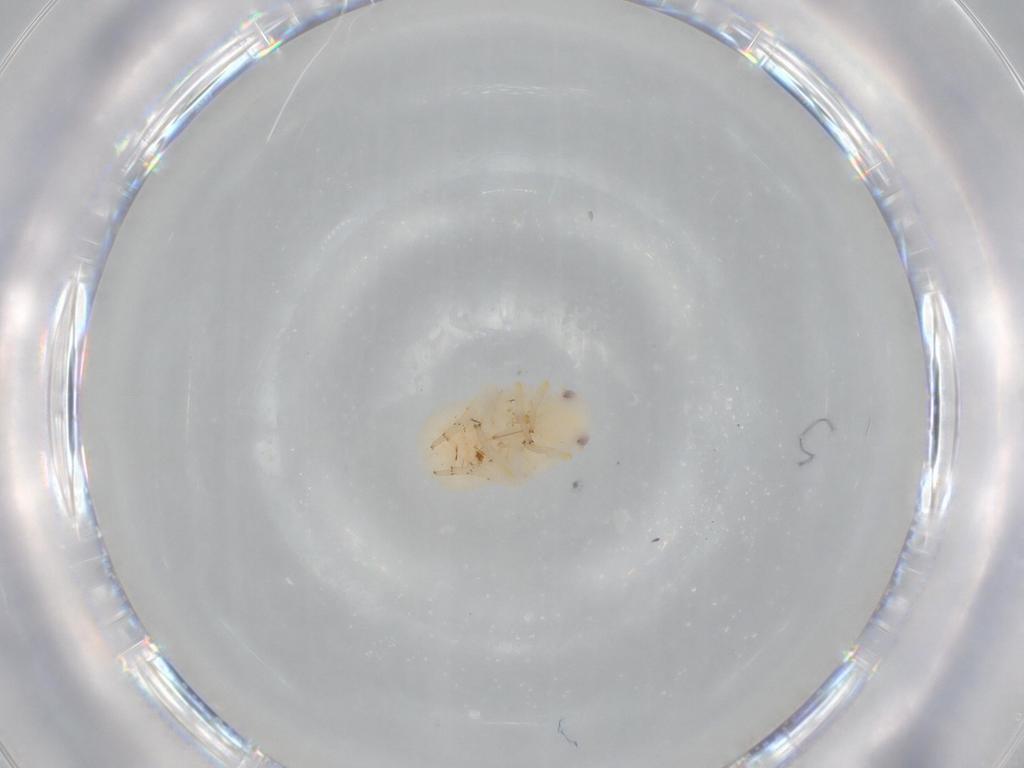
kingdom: Animalia
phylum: Arthropoda
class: Insecta
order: Hemiptera
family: Flatidae
